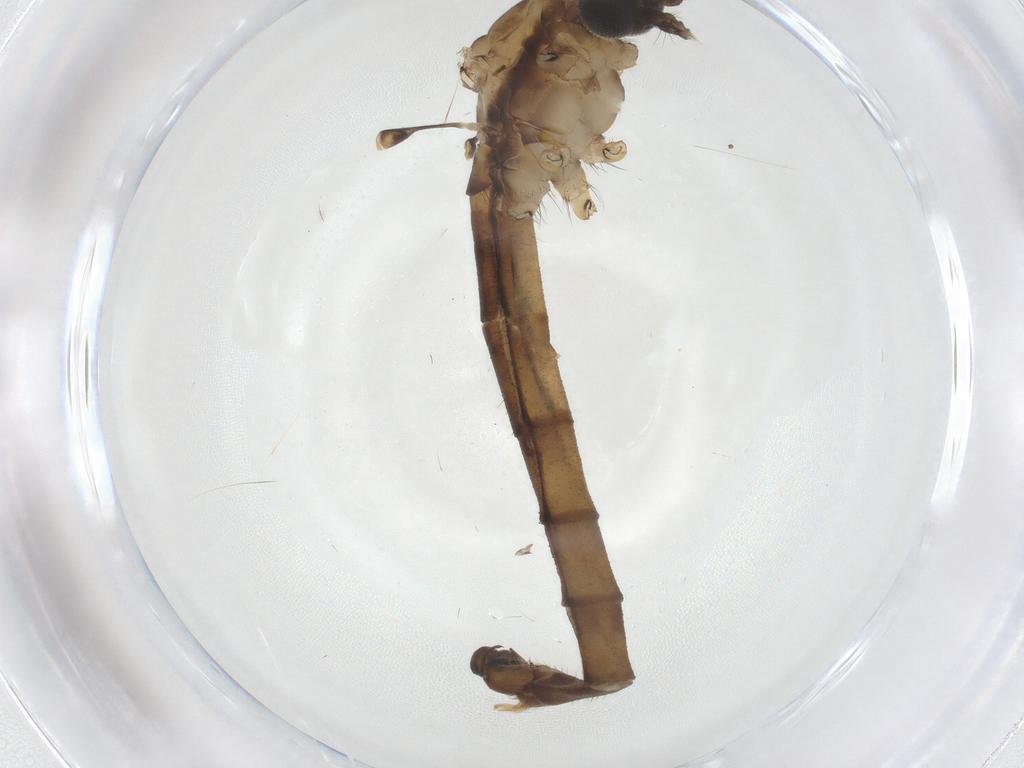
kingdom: Animalia
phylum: Arthropoda
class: Insecta
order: Diptera
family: Limoniidae
